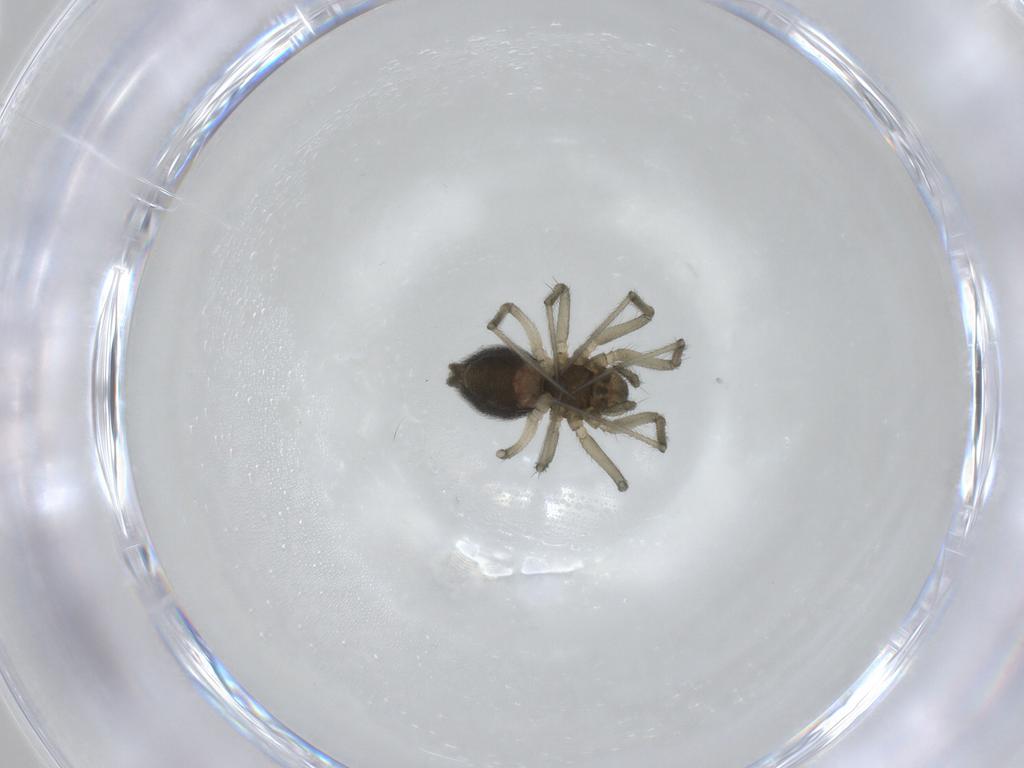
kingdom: Animalia
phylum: Arthropoda
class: Arachnida
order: Araneae
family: Linyphiidae
